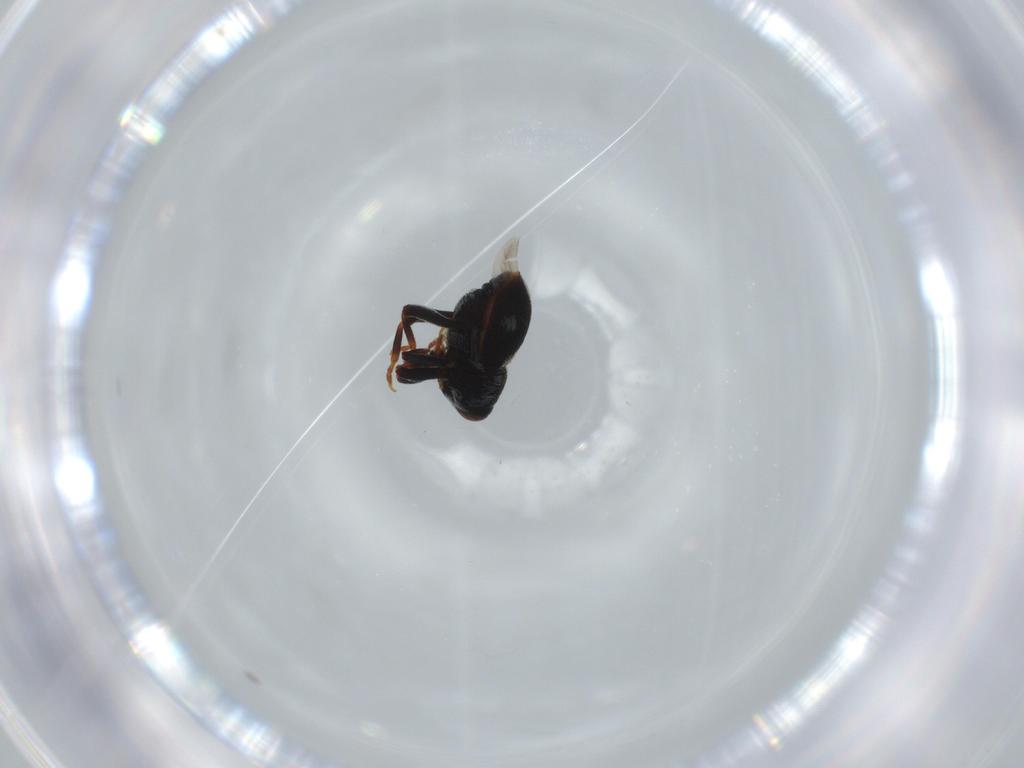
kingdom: Animalia
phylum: Arthropoda
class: Insecta
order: Coleoptera
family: Curculionidae
